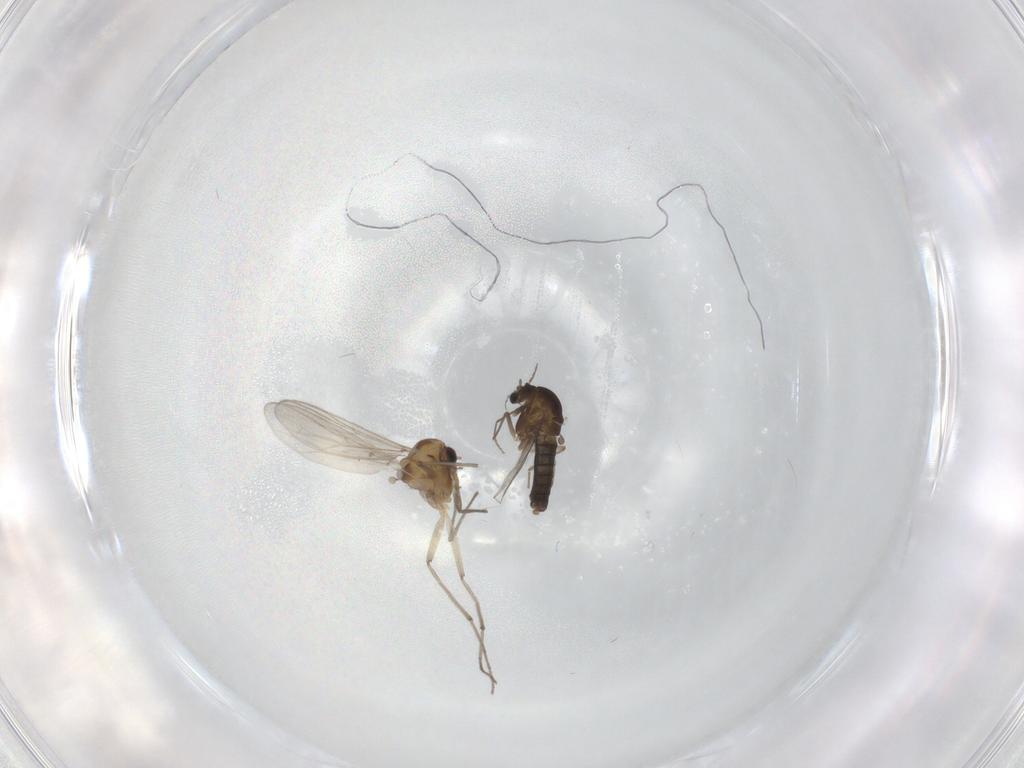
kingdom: Animalia
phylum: Arthropoda
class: Insecta
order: Diptera
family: Chironomidae
